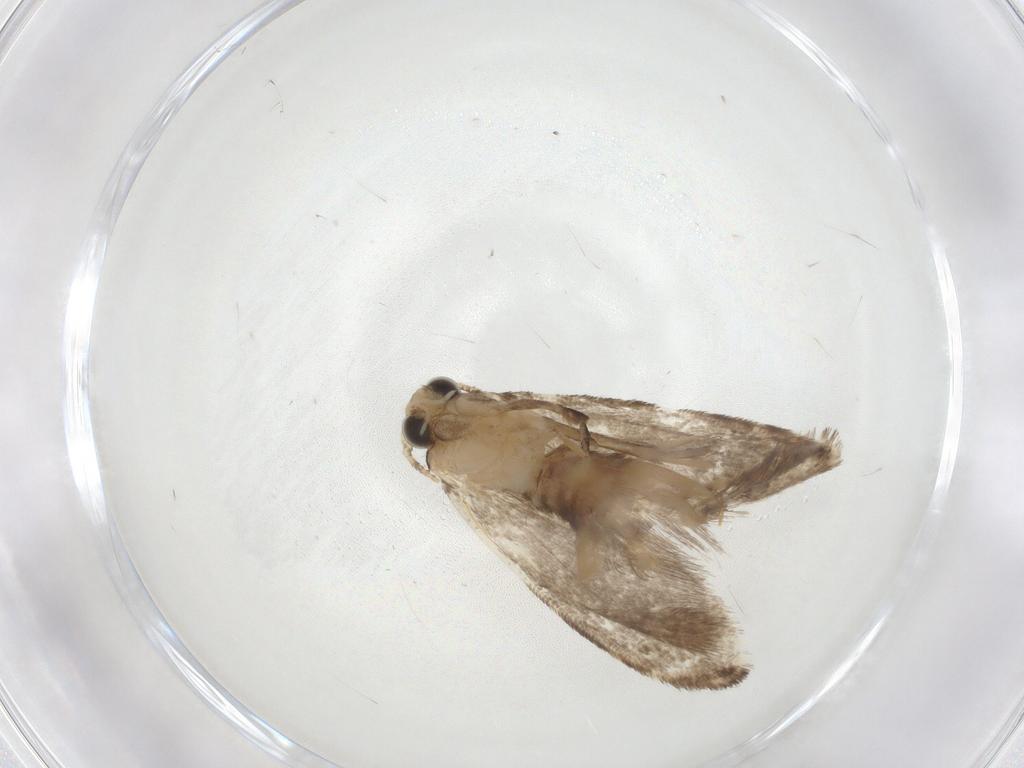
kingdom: Animalia
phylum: Arthropoda
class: Insecta
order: Lepidoptera
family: Tineidae
